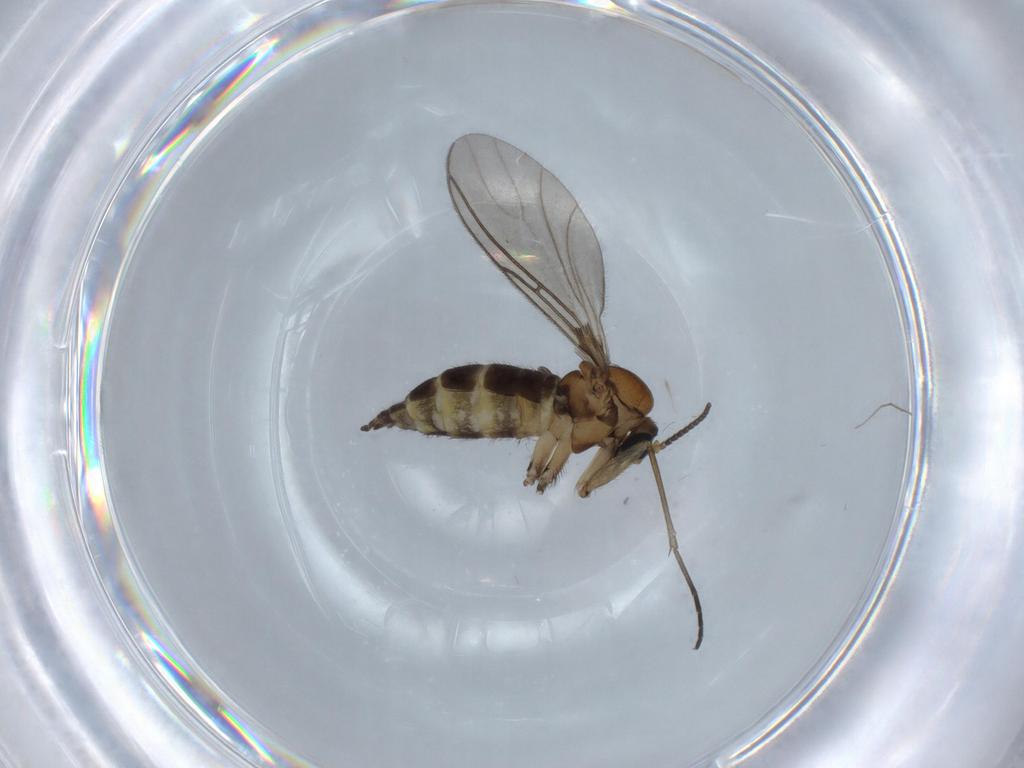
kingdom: Animalia
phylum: Arthropoda
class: Insecta
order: Diptera
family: Sciaridae
